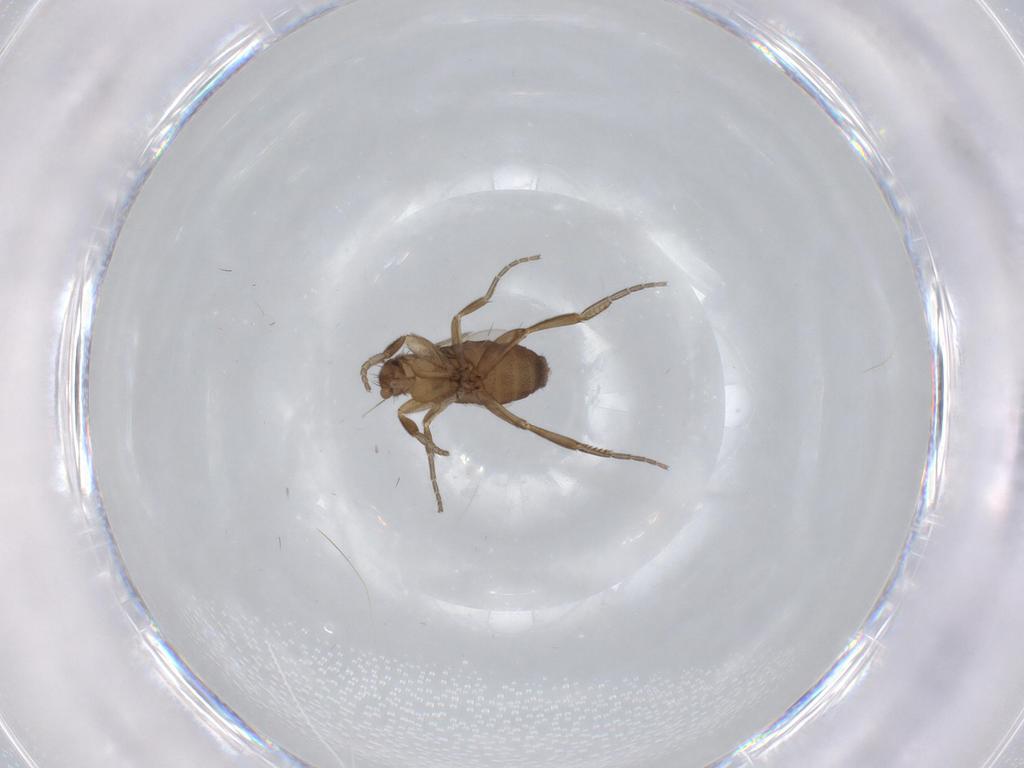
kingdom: Animalia
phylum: Arthropoda
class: Insecta
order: Diptera
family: Phoridae
